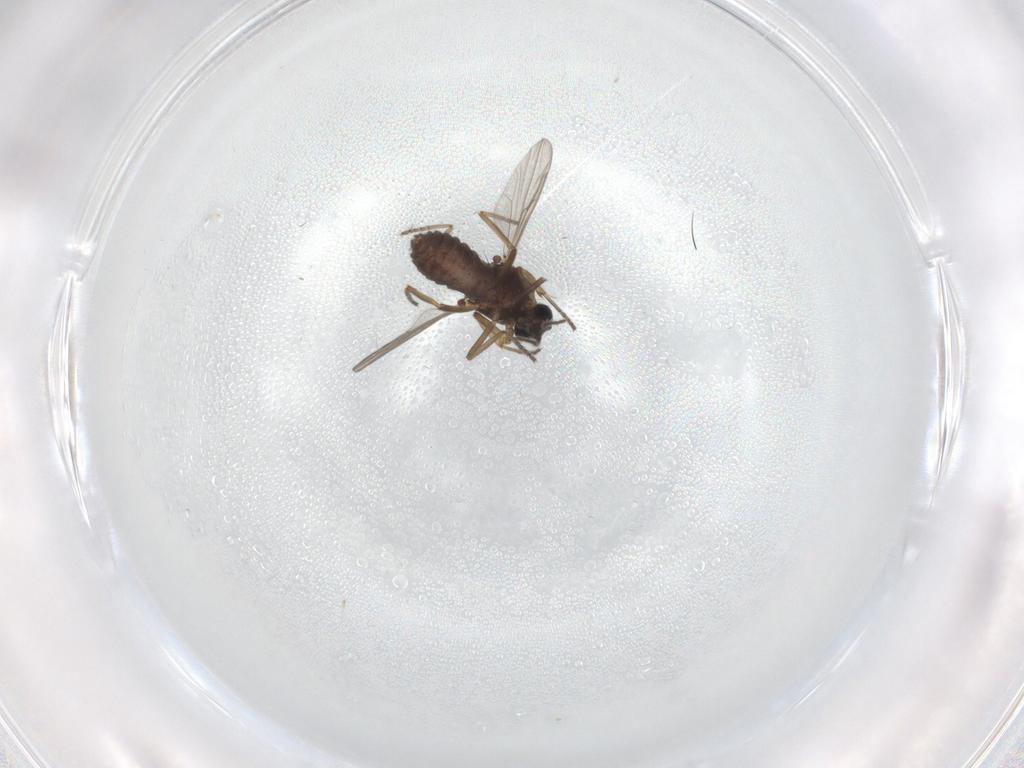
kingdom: Animalia
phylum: Arthropoda
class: Insecta
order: Diptera
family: Ceratopogonidae
